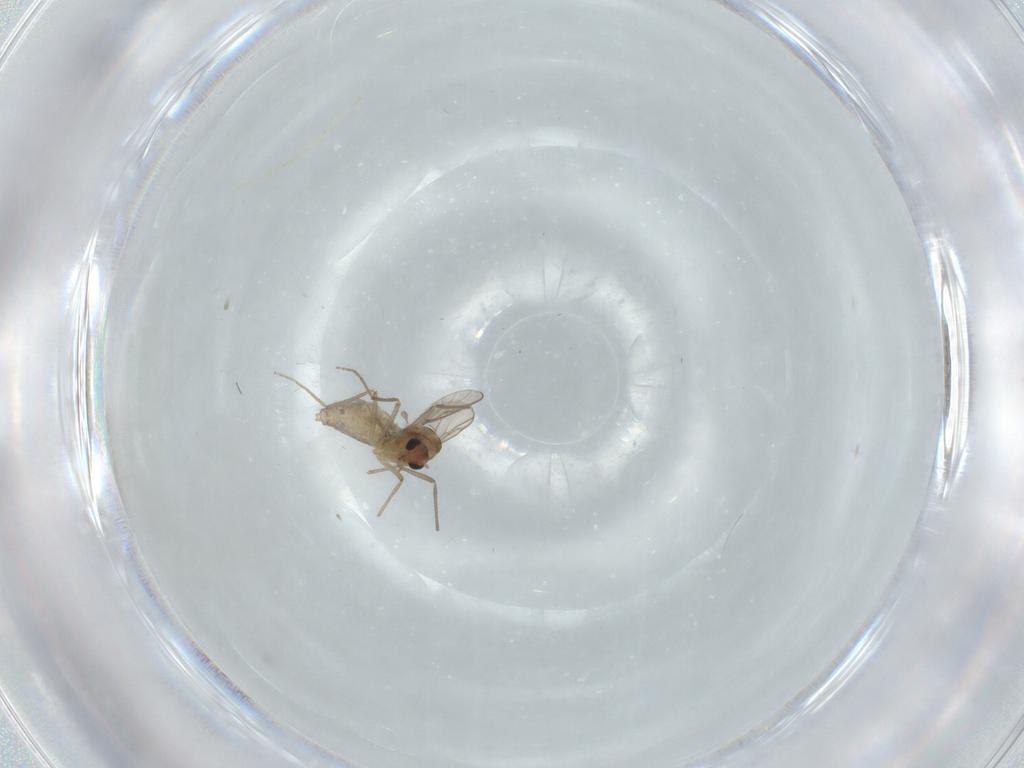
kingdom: Animalia
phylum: Arthropoda
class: Insecta
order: Diptera
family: Chironomidae
